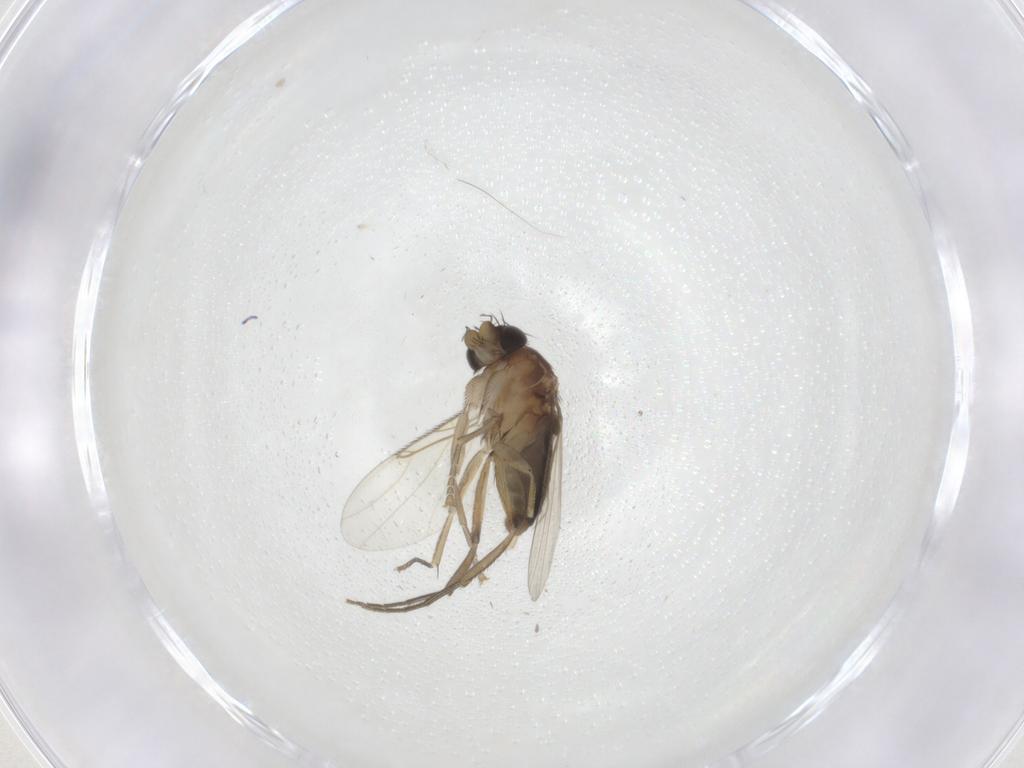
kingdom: Animalia
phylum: Arthropoda
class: Insecta
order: Diptera
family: Phoridae
